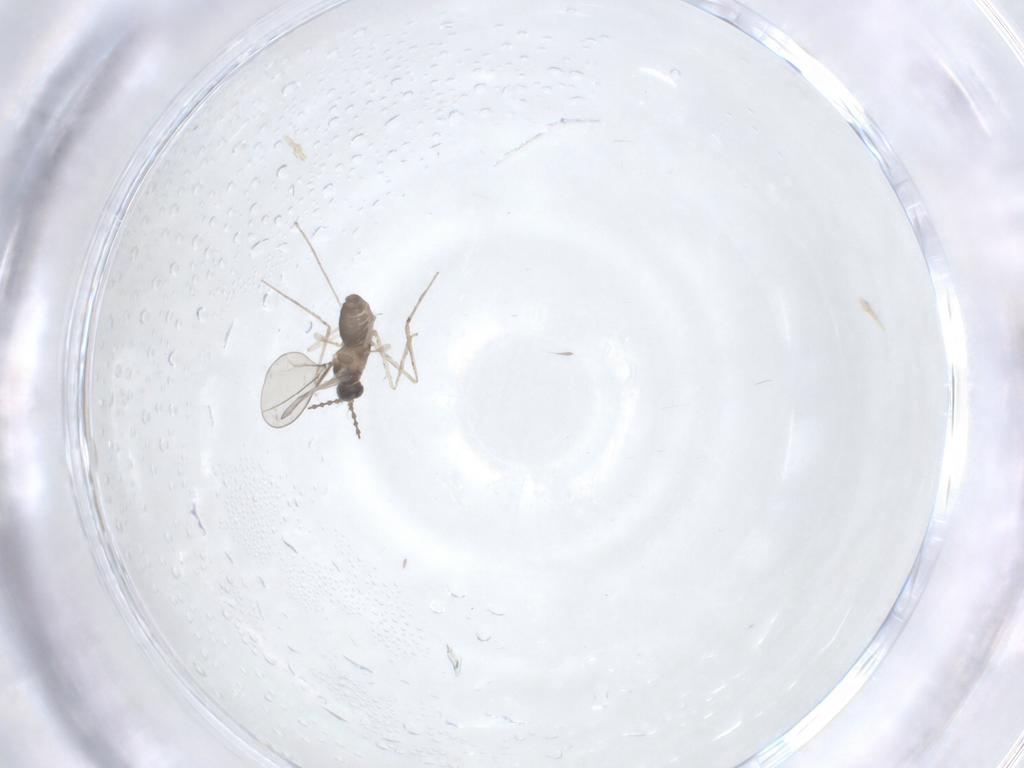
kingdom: Animalia
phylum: Arthropoda
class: Insecta
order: Diptera
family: Cecidomyiidae
